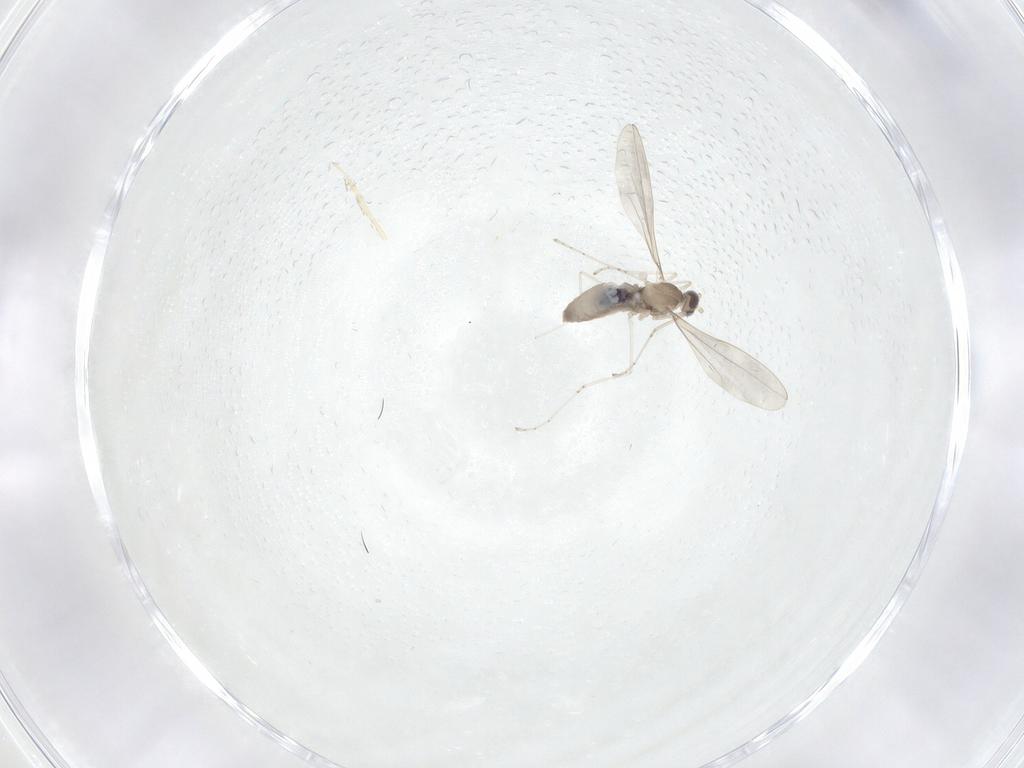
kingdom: Animalia
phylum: Arthropoda
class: Insecta
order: Diptera
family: Cecidomyiidae
